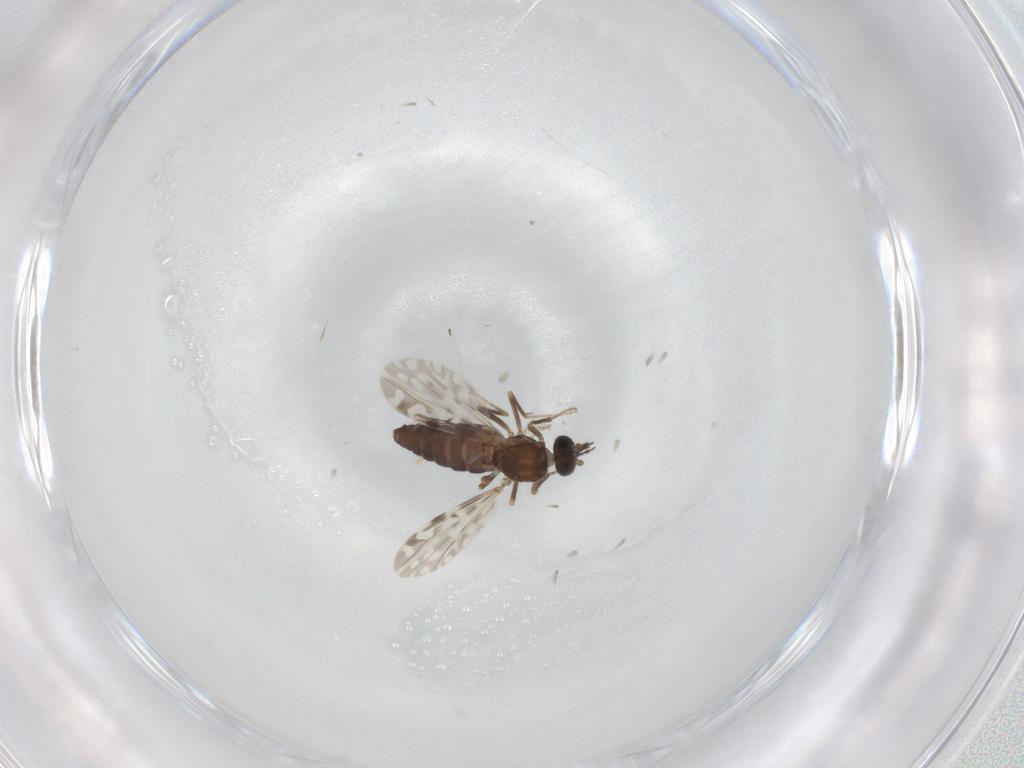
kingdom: Animalia
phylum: Arthropoda
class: Insecta
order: Diptera
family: Ceratopogonidae
